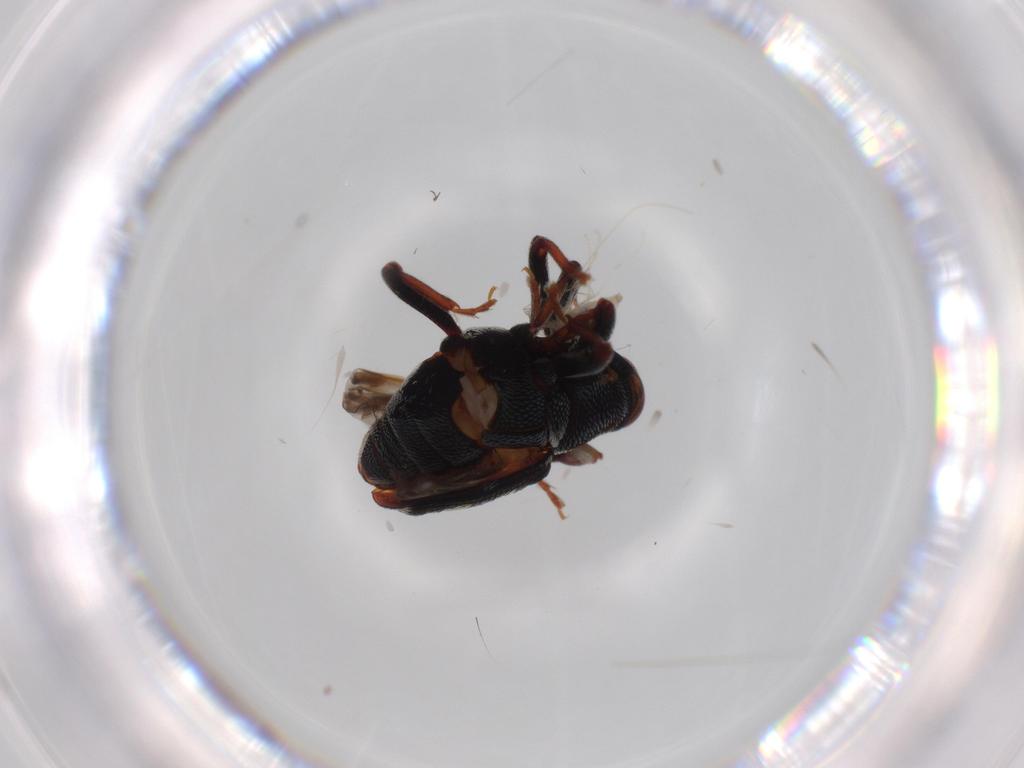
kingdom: Animalia
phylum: Arthropoda
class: Insecta
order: Coleoptera
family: Curculionidae
